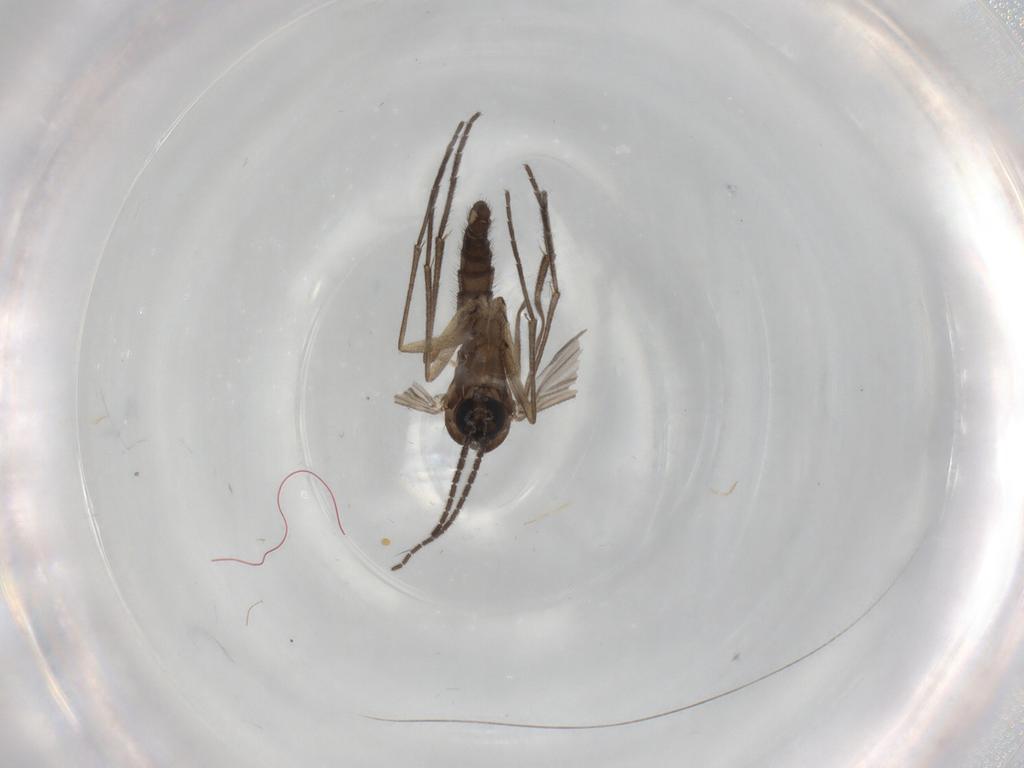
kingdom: Animalia
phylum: Arthropoda
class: Insecta
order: Diptera
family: Sciaridae
